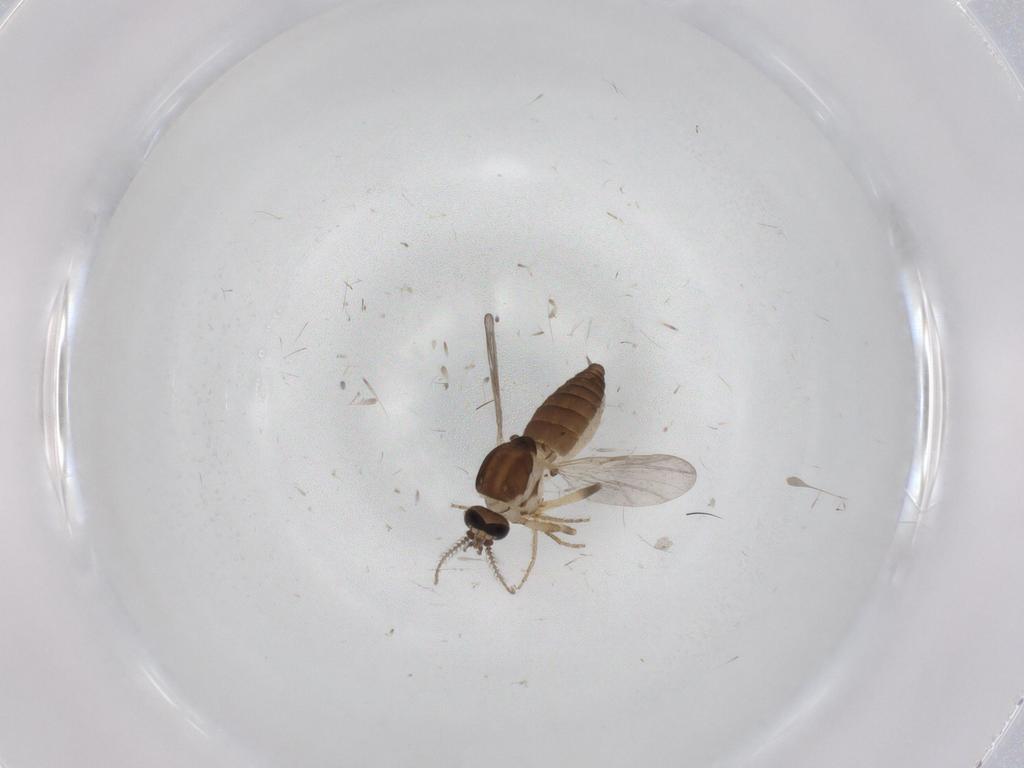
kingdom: Animalia
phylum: Arthropoda
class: Insecta
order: Diptera
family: Ceratopogonidae
